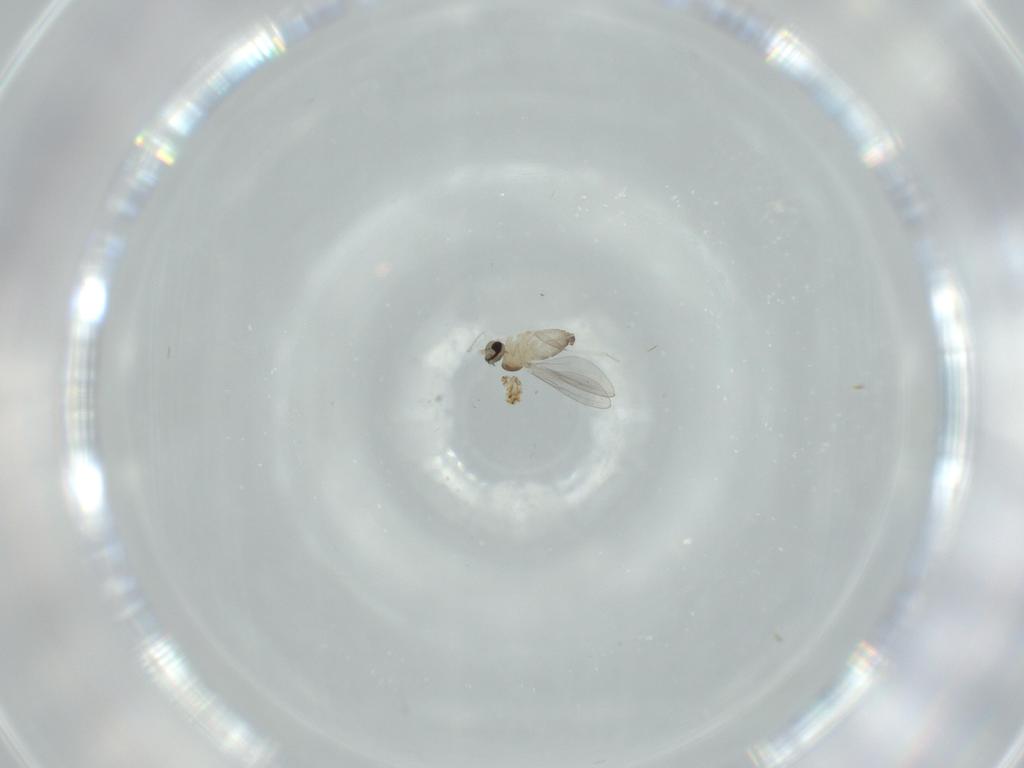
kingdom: Animalia
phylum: Arthropoda
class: Insecta
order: Diptera
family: Cecidomyiidae
